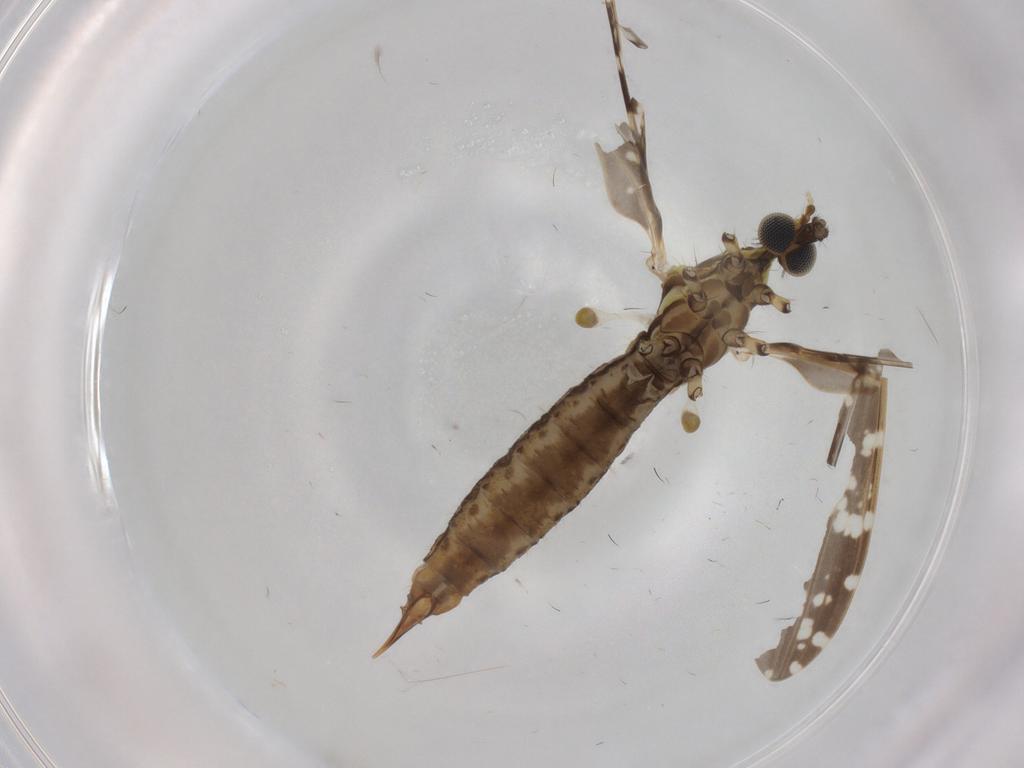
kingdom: Animalia
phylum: Arthropoda
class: Insecta
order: Diptera
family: Limoniidae
